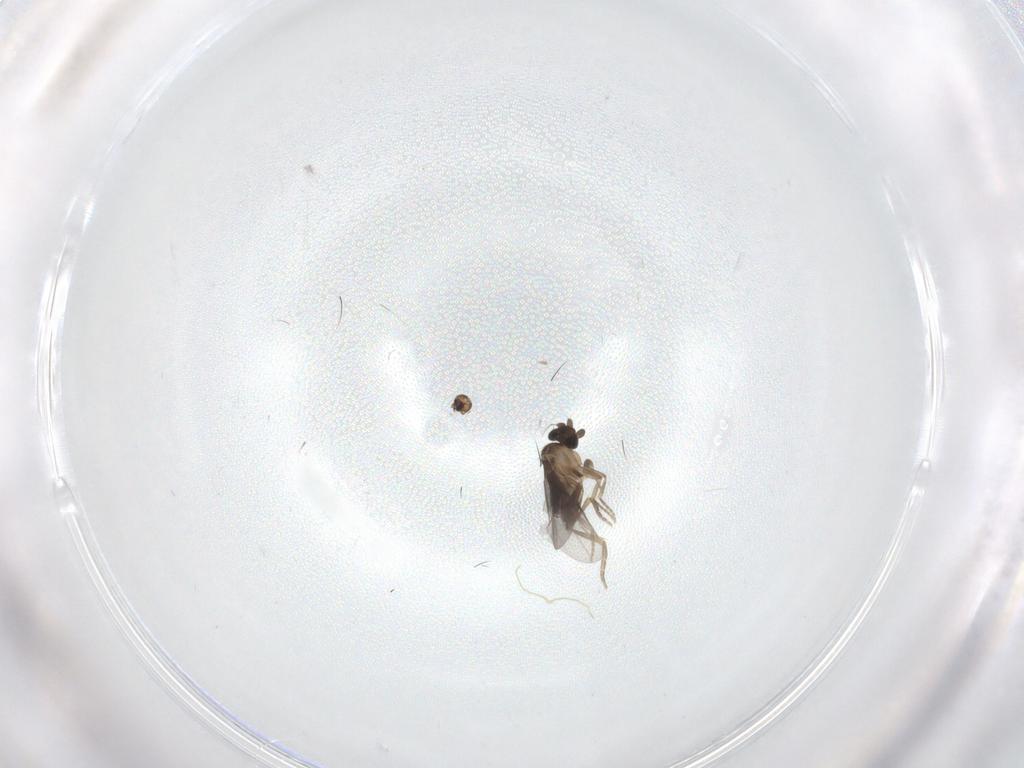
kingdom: Animalia
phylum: Arthropoda
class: Insecta
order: Diptera
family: Phoridae
